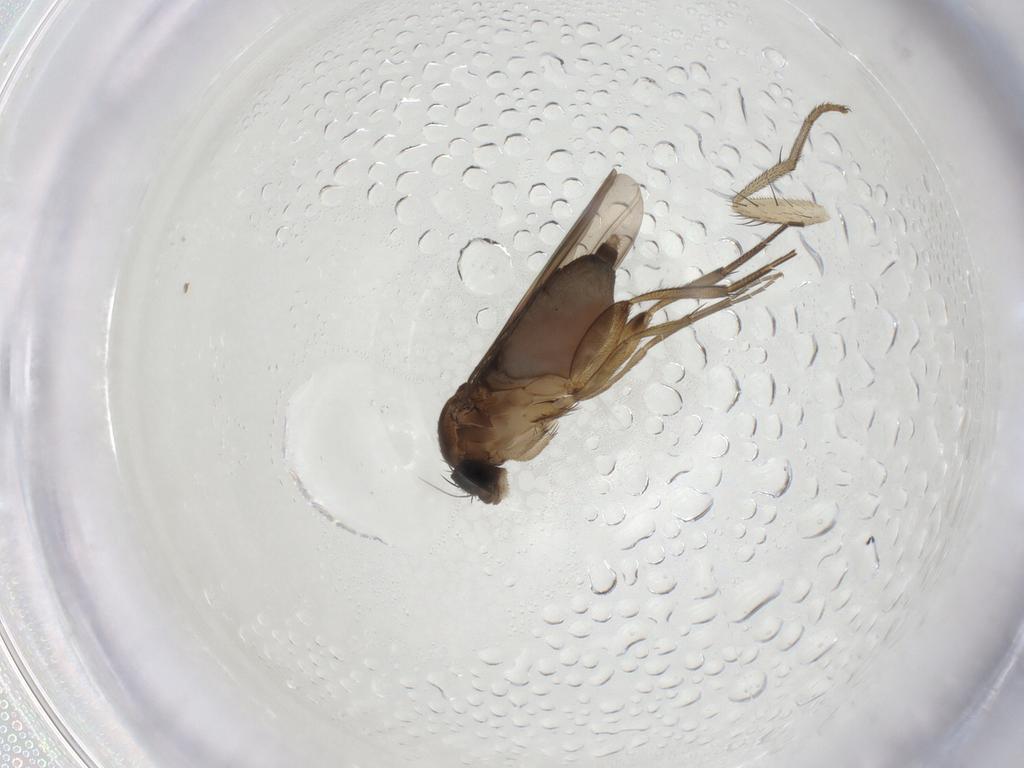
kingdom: Animalia
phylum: Arthropoda
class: Insecta
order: Diptera
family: Phoridae
